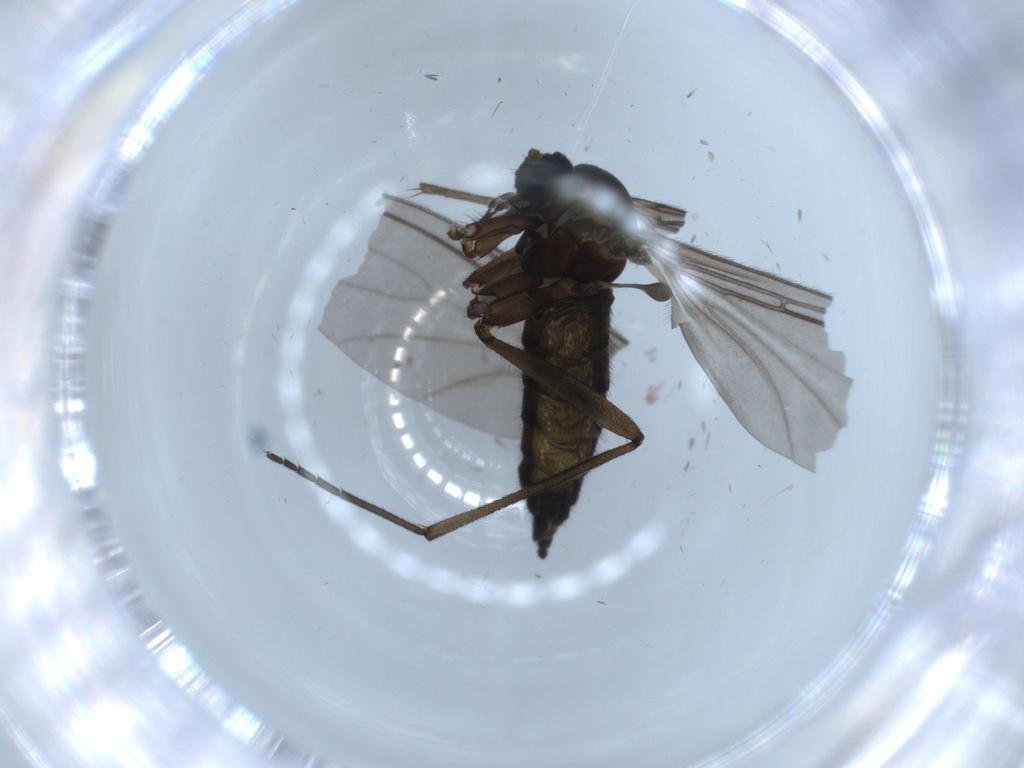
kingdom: Animalia
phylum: Arthropoda
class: Insecta
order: Diptera
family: Sciaridae
